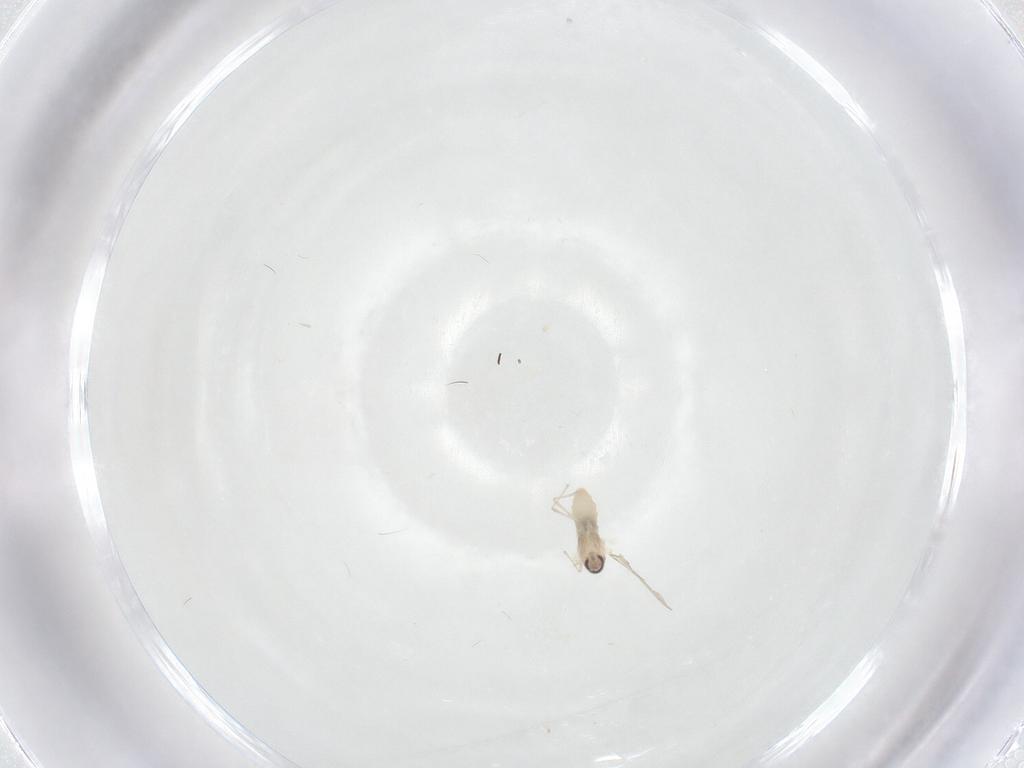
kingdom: Animalia
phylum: Arthropoda
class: Insecta
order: Diptera
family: Cecidomyiidae
